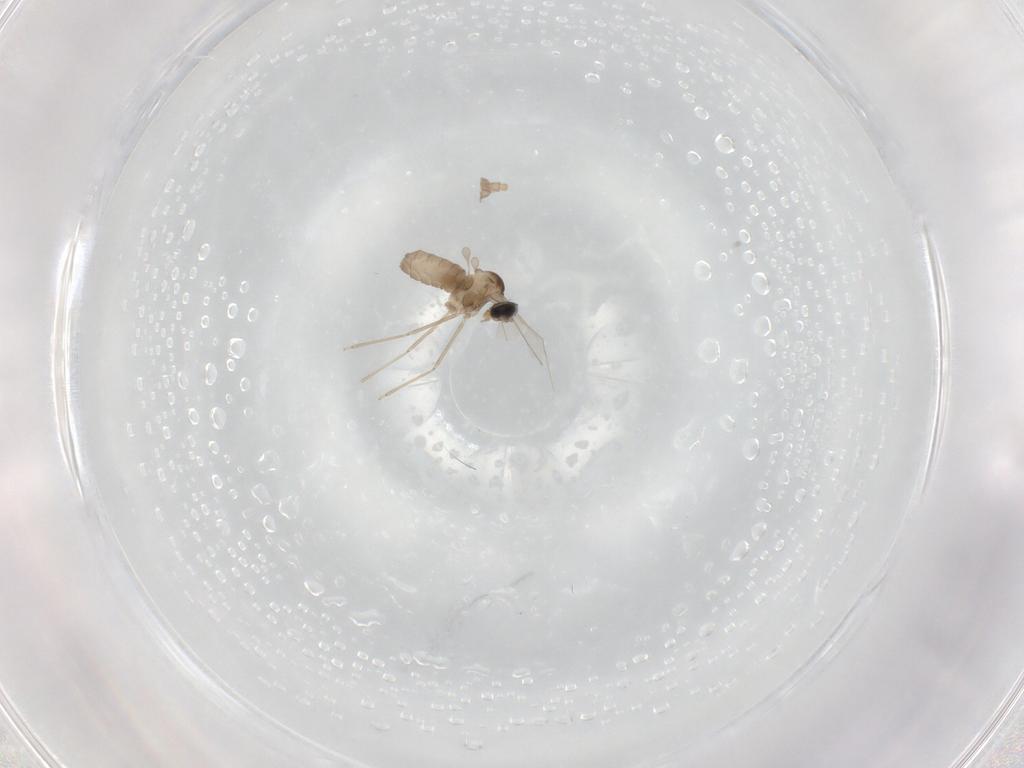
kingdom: Animalia
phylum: Arthropoda
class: Insecta
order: Diptera
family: Cecidomyiidae
